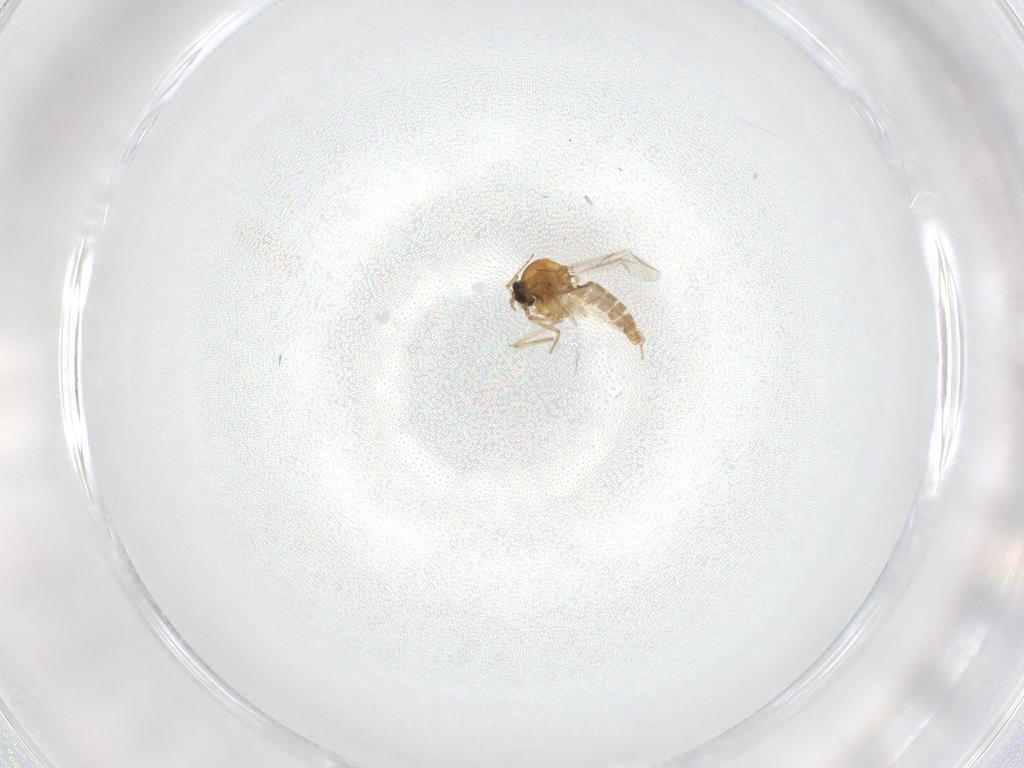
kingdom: Animalia
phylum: Arthropoda
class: Insecta
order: Diptera
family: Ceratopogonidae
